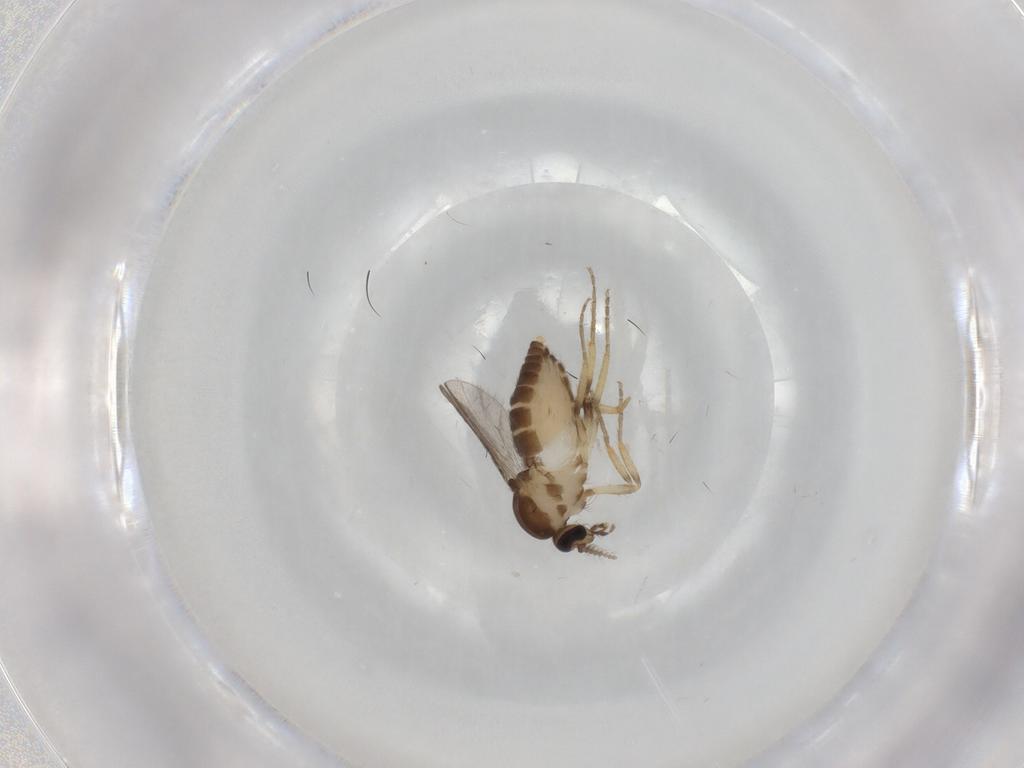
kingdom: Animalia
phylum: Arthropoda
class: Insecta
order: Diptera
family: Ceratopogonidae
